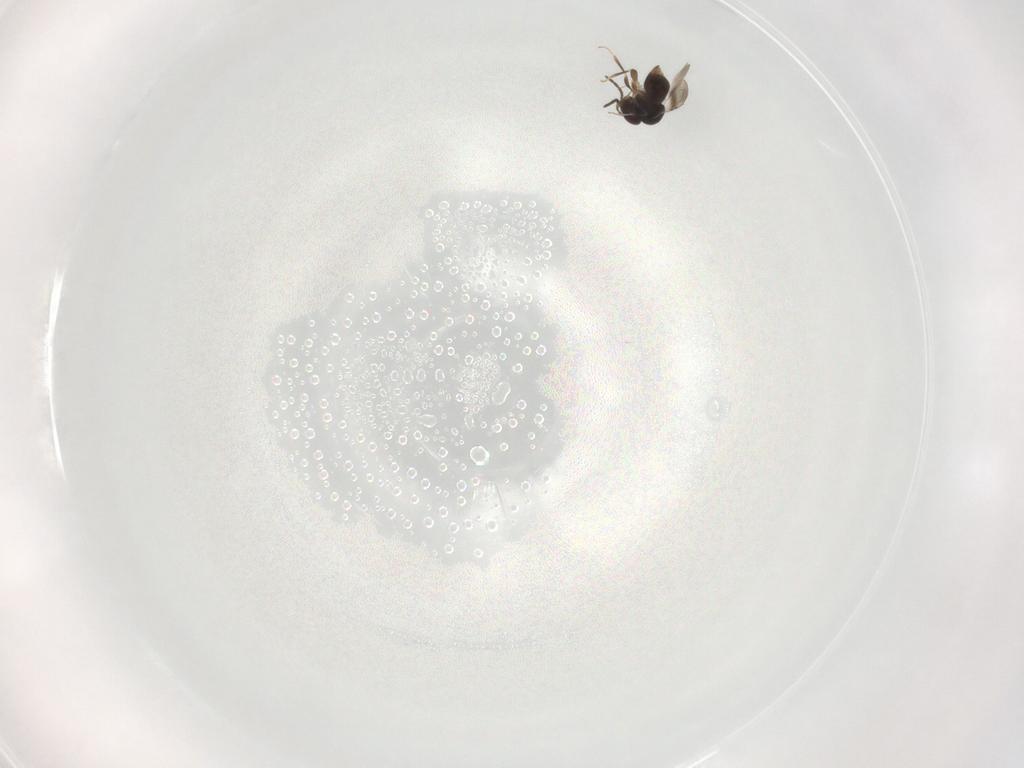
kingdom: Animalia
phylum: Arthropoda
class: Insecta
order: Hymenoptera
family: Ceraphronidae
